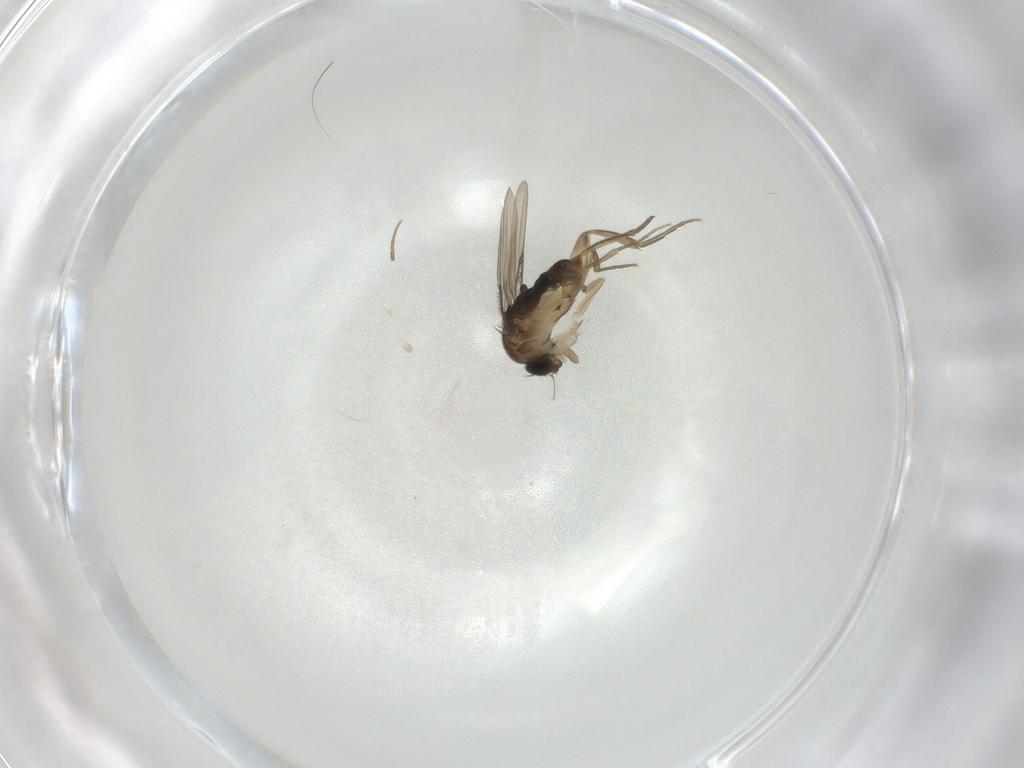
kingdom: Animalia
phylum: Arthropoda
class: Insecta
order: Diptera
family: Phoridae
